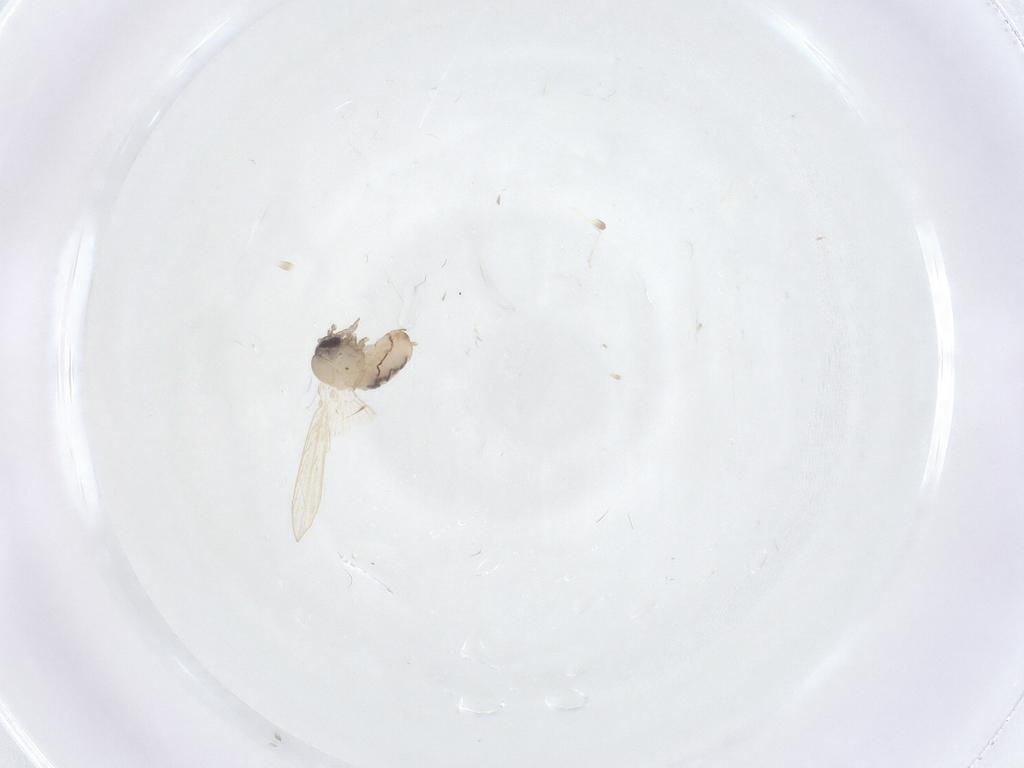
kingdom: Animalia
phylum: Arthropoda
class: Insecta
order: Diptera
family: Psychodidae
